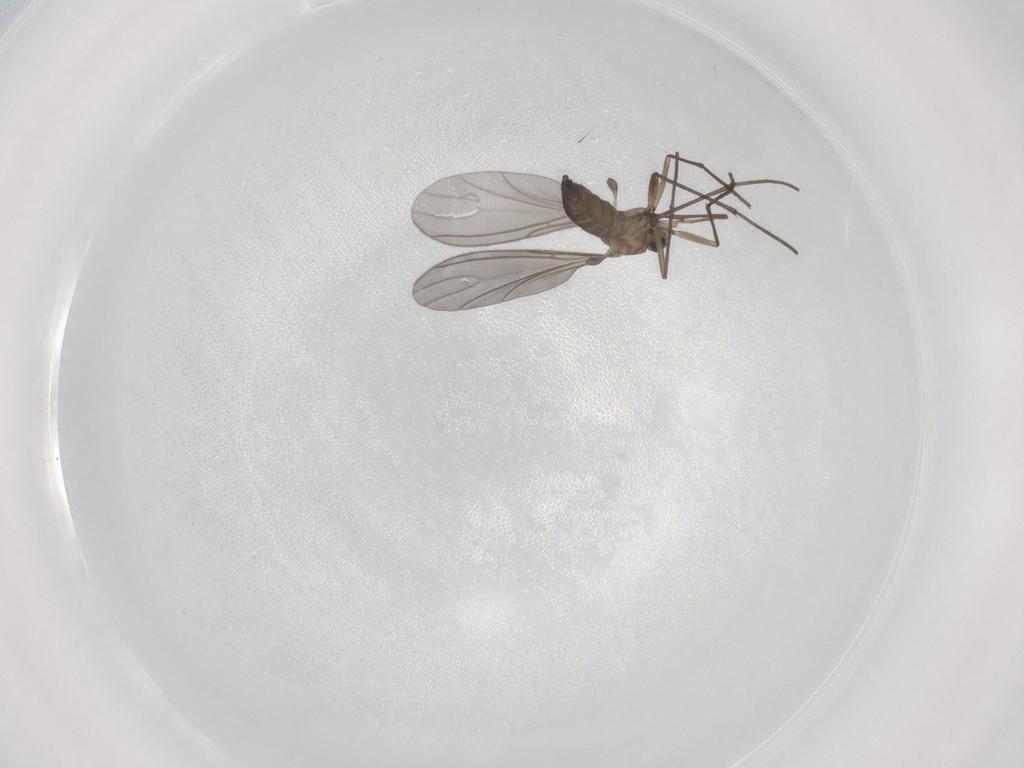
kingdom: Animalia
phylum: Arthropoda
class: Insecta
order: Diptera
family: Sciaridae
